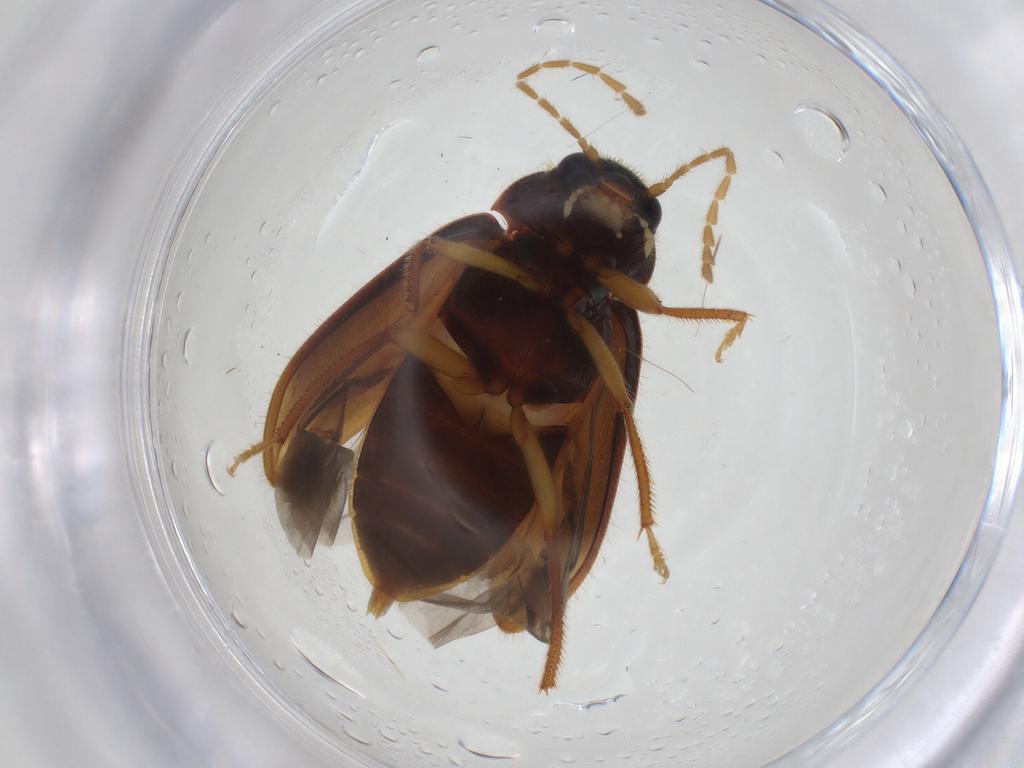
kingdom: Animalia
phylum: Arthropoda
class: Insecta
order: Coleoptera
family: Ptilodactylidae
